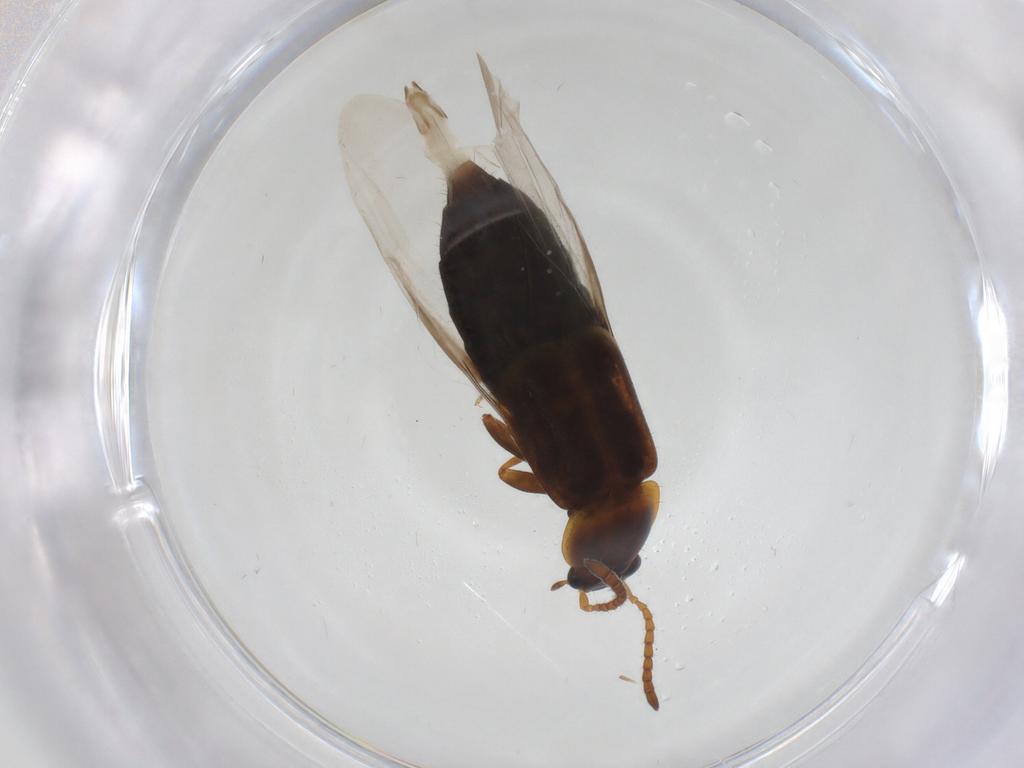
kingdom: Animalia
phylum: Arthropoda
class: Insecta
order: Coleoptera
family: Staphylinidae
